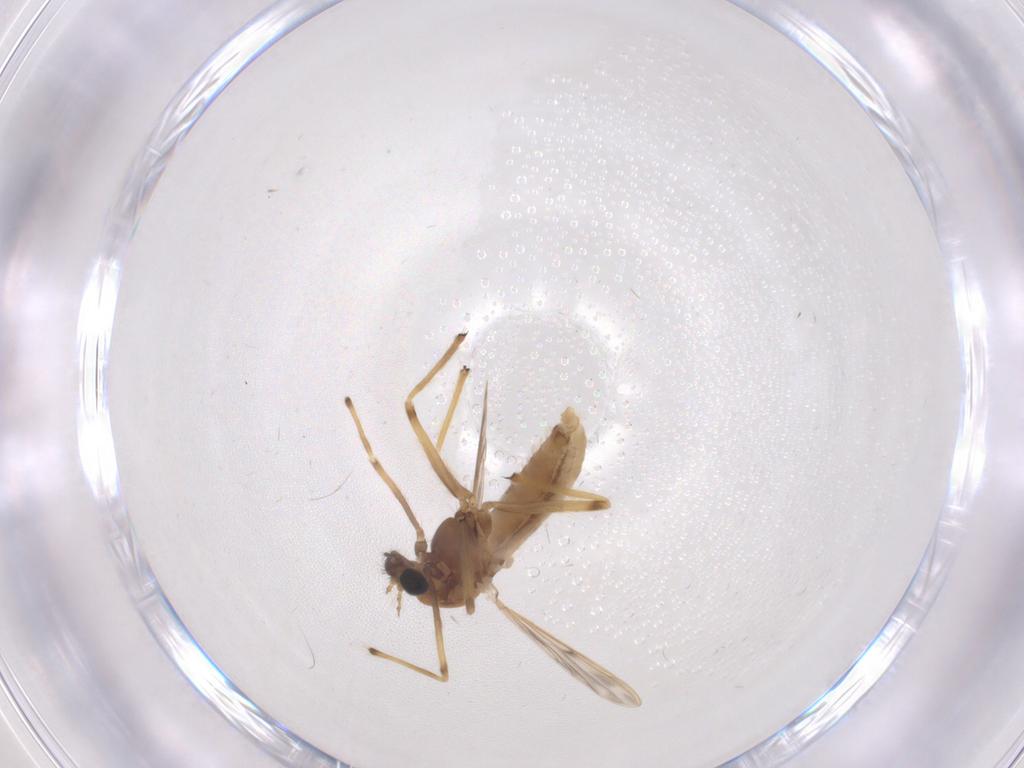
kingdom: Animalia
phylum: Arthropoda
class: Insecta
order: Diptera
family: Chironomidae
